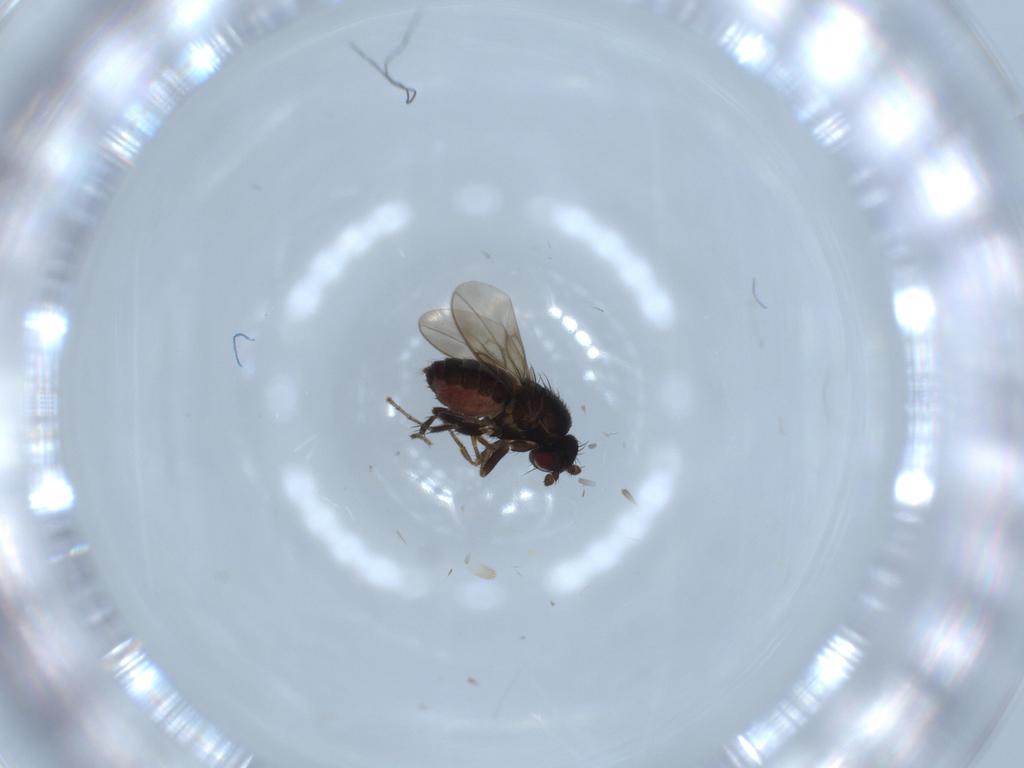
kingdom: Animalia
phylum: Arthropoda
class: Insecta
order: Diptera
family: Sphaeroceridae
